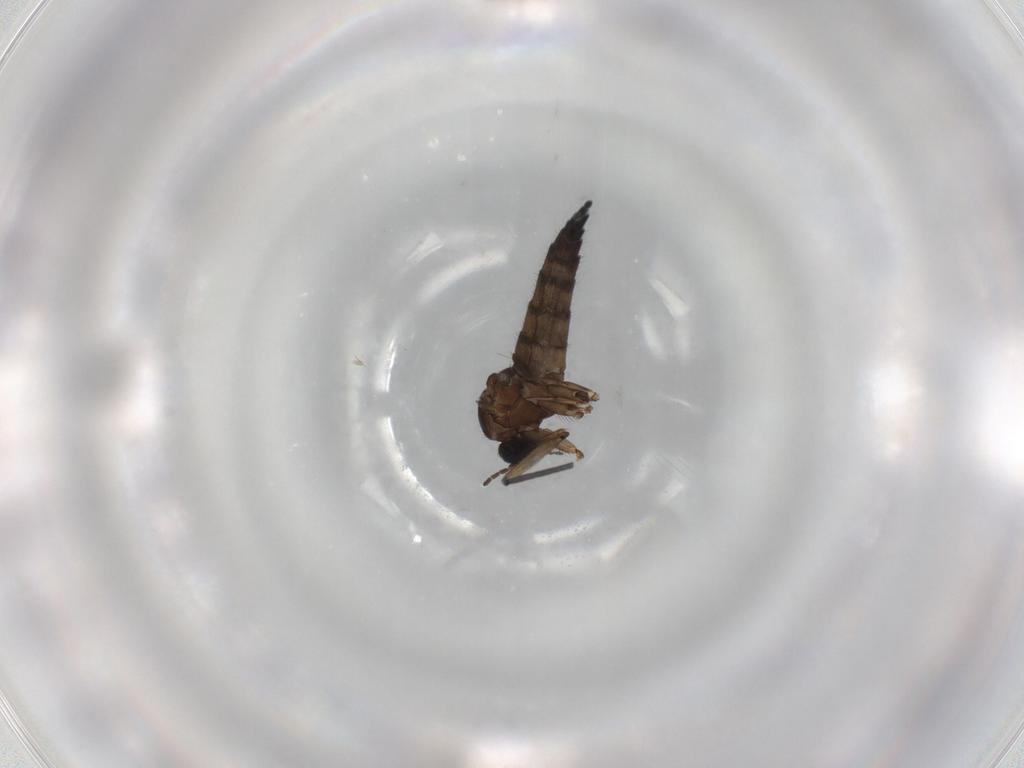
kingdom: Animalia
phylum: Arthropoda
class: Insecta
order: Diptera
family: Sciaridae
